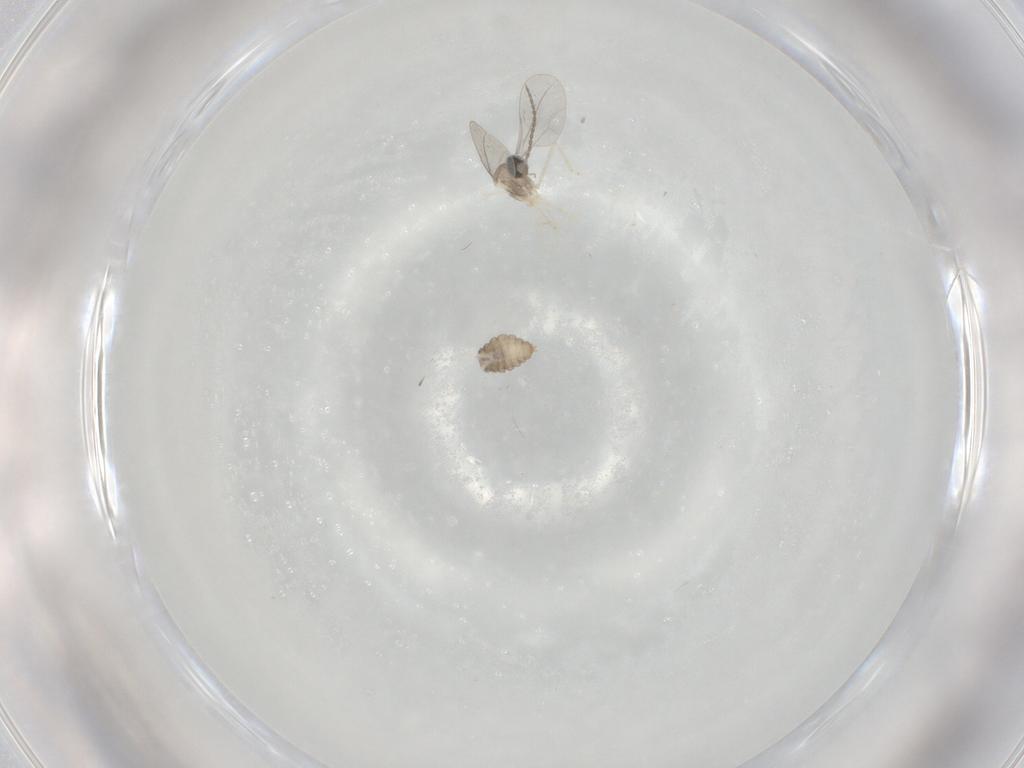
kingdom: Animalia
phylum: Arthropoda
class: Insecta
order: Diptera
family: Cecidomyiidae
